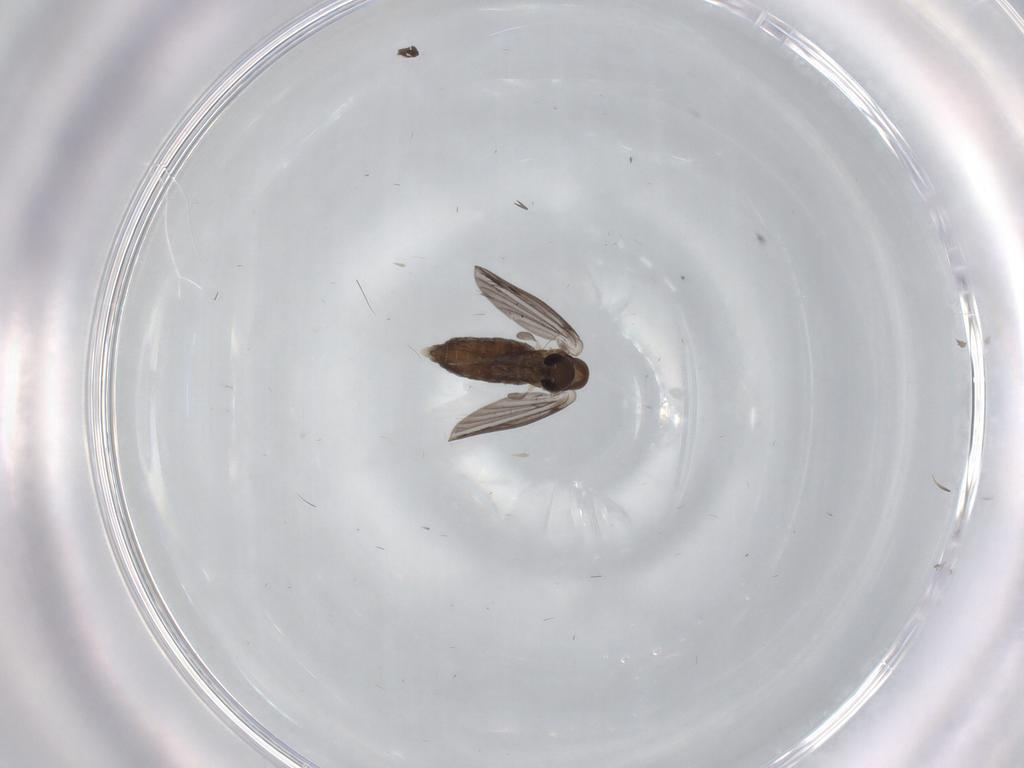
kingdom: Animalia
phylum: Arthropoda
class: Insecta
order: Diptera
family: Ceratopogonidae
